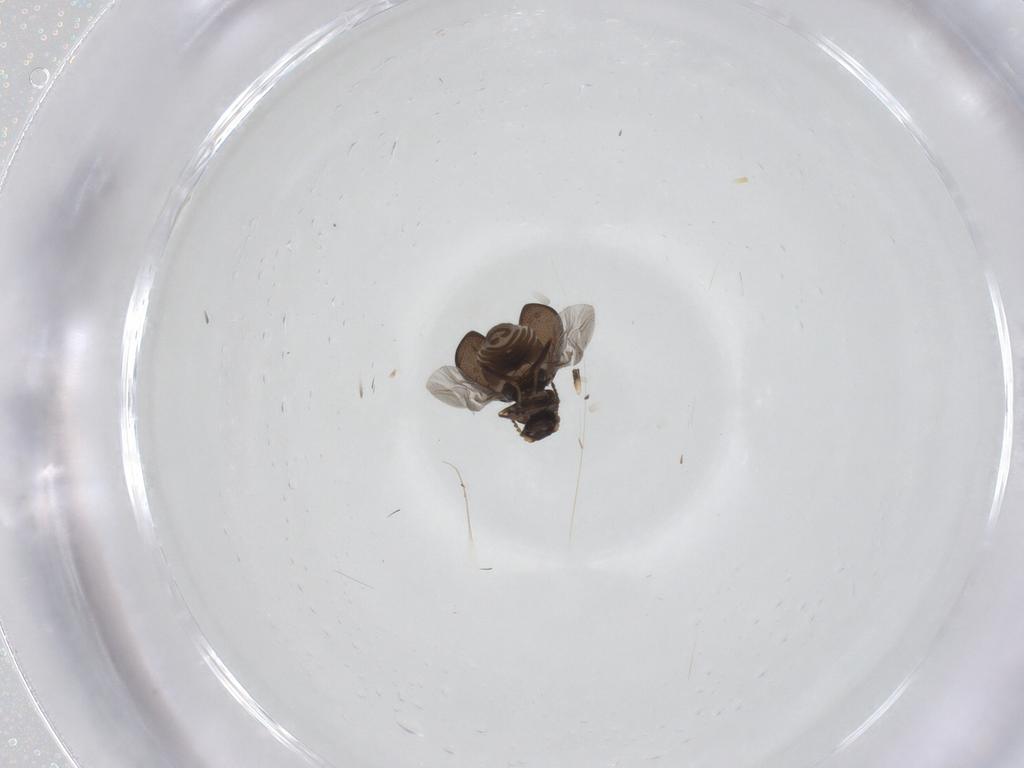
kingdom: Animalia
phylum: Arthropoda
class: Insecta
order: Coleoptera
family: Melyridae
